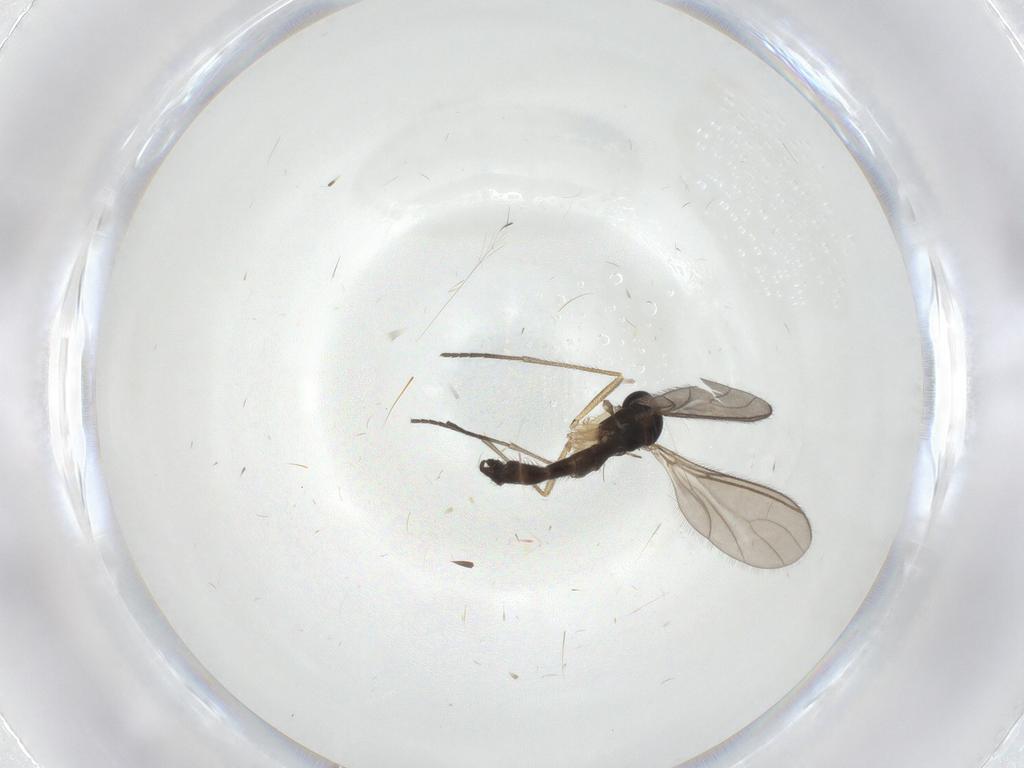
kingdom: Animalia
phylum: Arthropoda
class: Insecta
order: Diptera
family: Sciaridae
